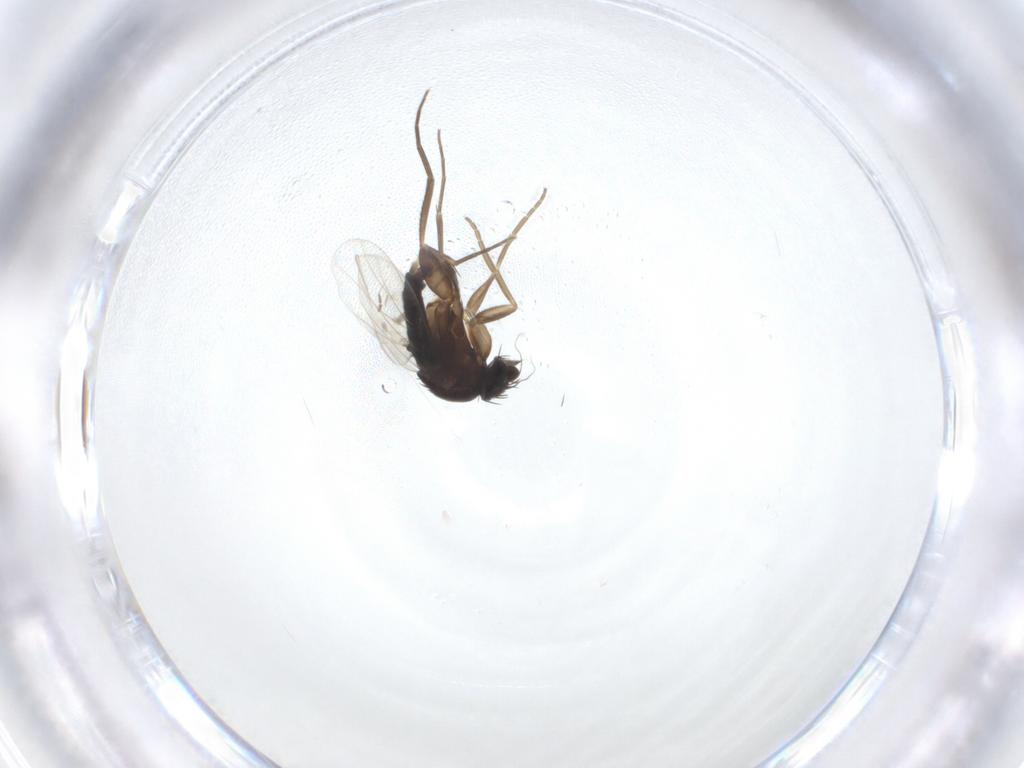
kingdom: Animalia
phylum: Arthropoda
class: Insecta
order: Diptera
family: Phoridae
